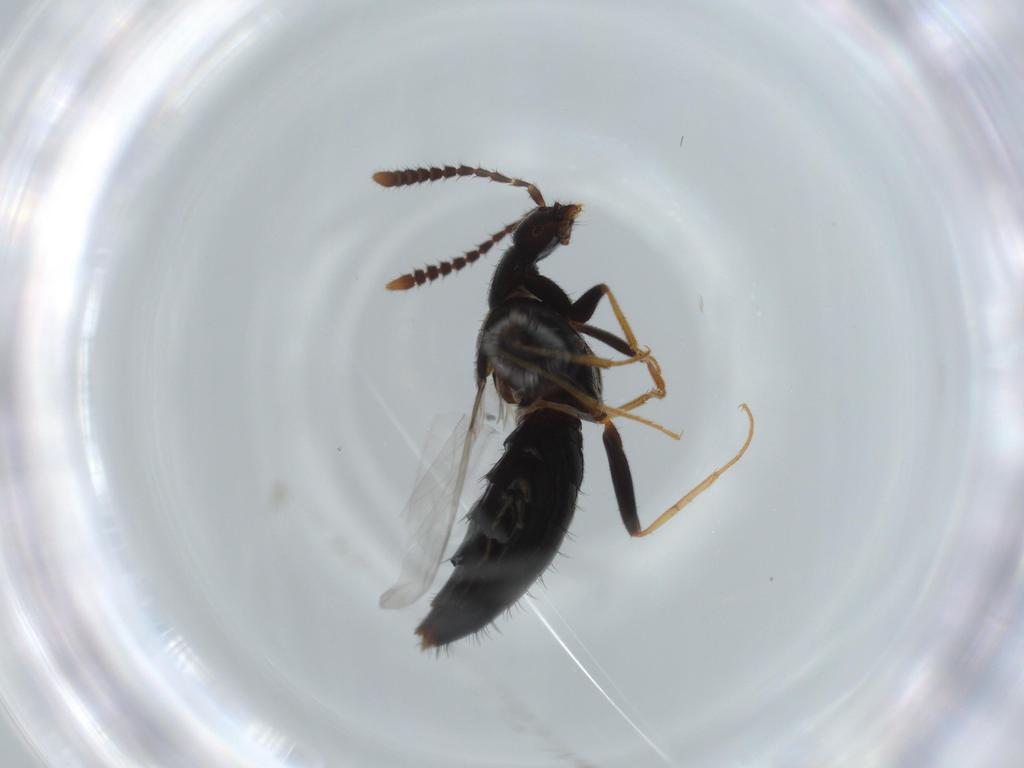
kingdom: Animalia
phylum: Arthropoda
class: Insecta
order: Coleoptera
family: Staphylinidae
